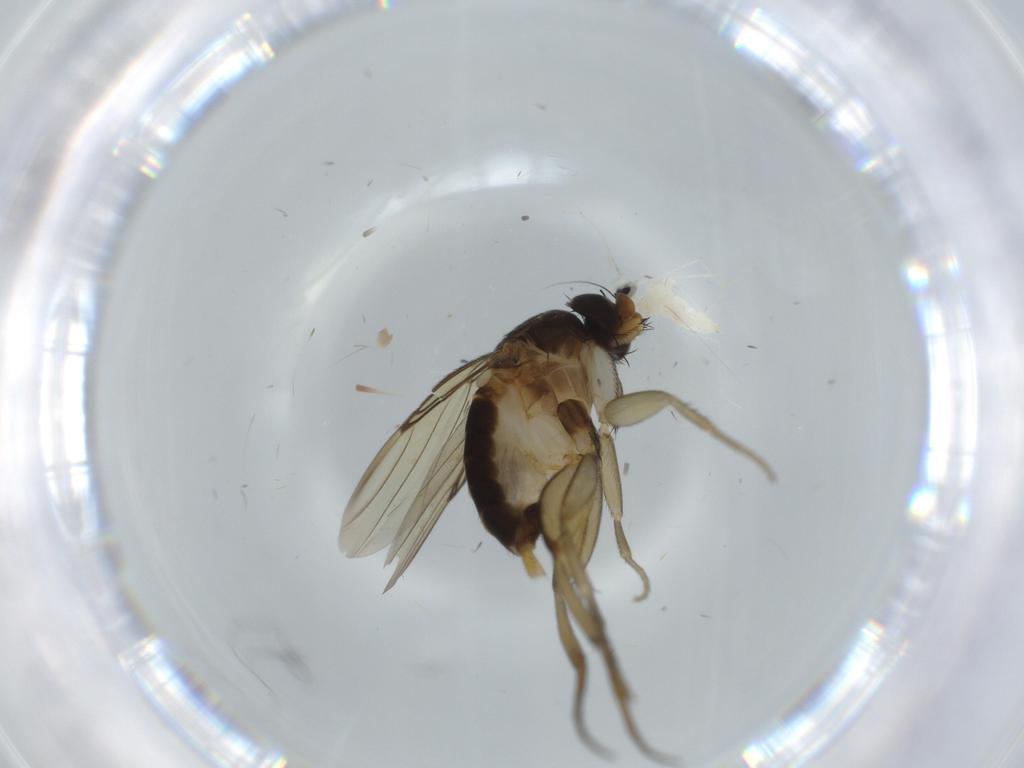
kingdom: Animalia
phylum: Arthropoda
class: Insecta
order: Diptera
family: Phoridae
